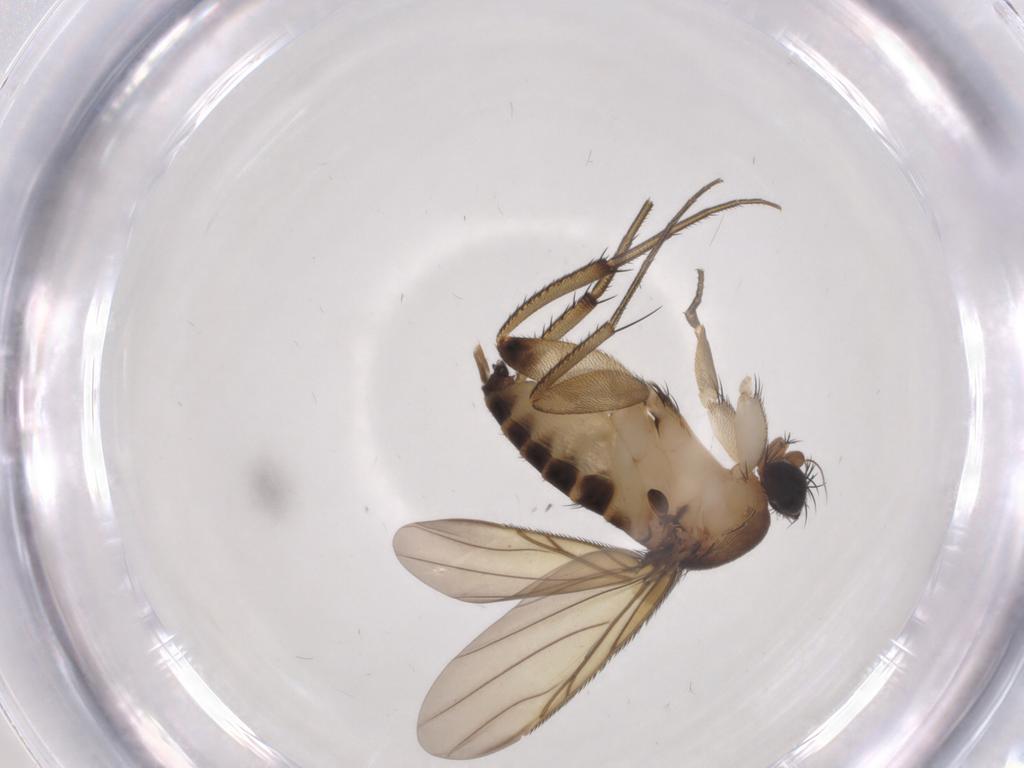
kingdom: Animalia
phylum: Arthropoda
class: Insecta
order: Diptera
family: Phoridae
